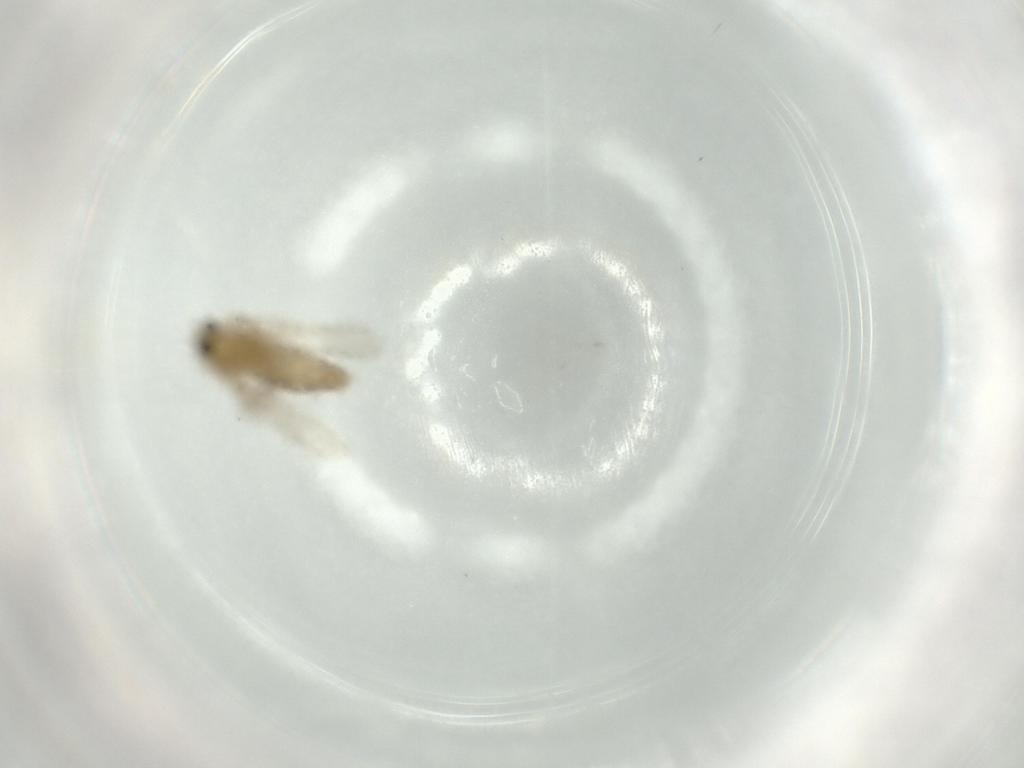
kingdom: Animalia
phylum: Arthropoda
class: Insecta
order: Diptera
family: Chironomidae
